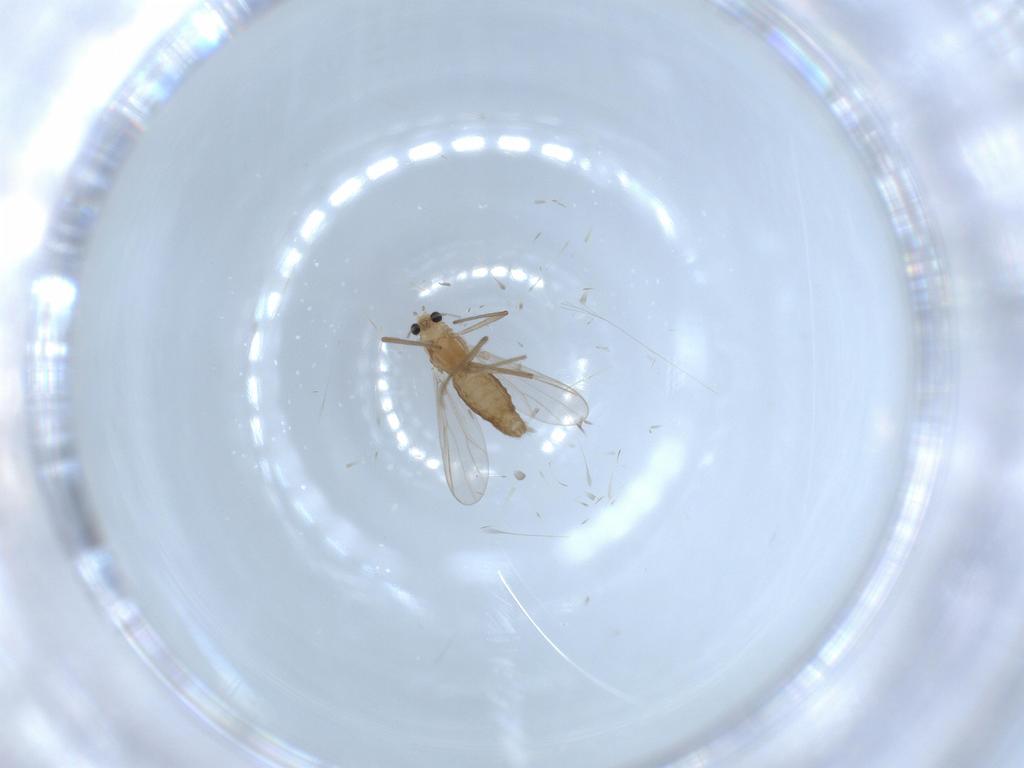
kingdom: Animalia
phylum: Arthropoda
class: Insecta
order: Diptera
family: Chironomidae
